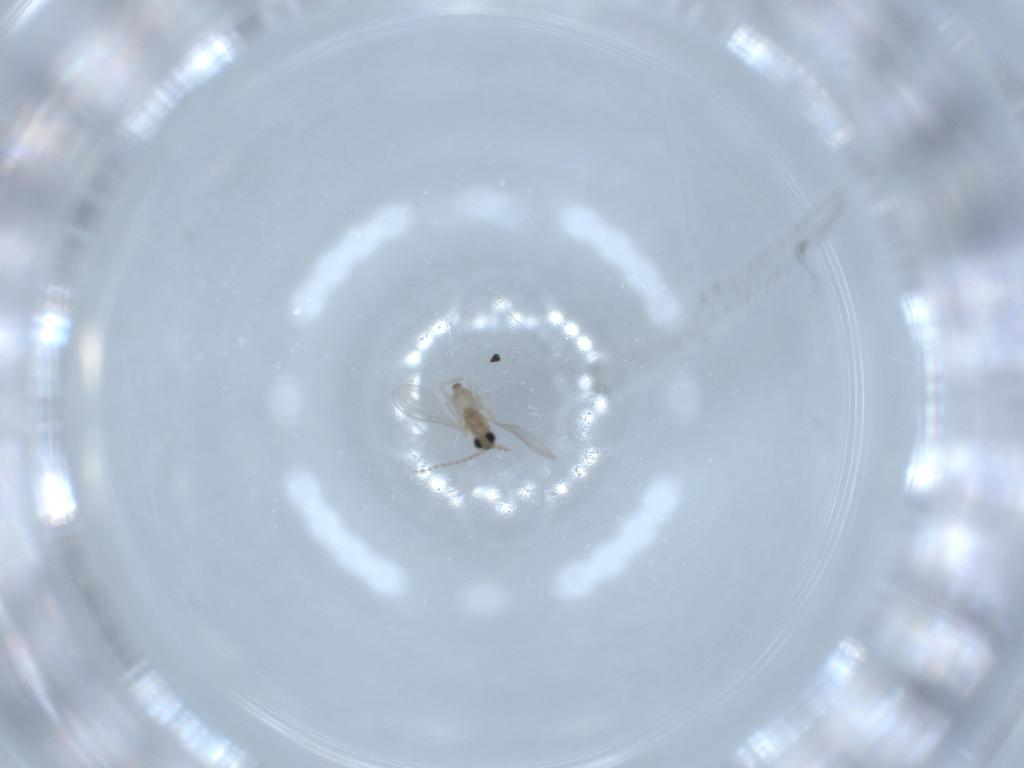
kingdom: Animalia
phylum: Arthropoda
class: Insecta
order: Diptera
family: Cecidomyiidae
